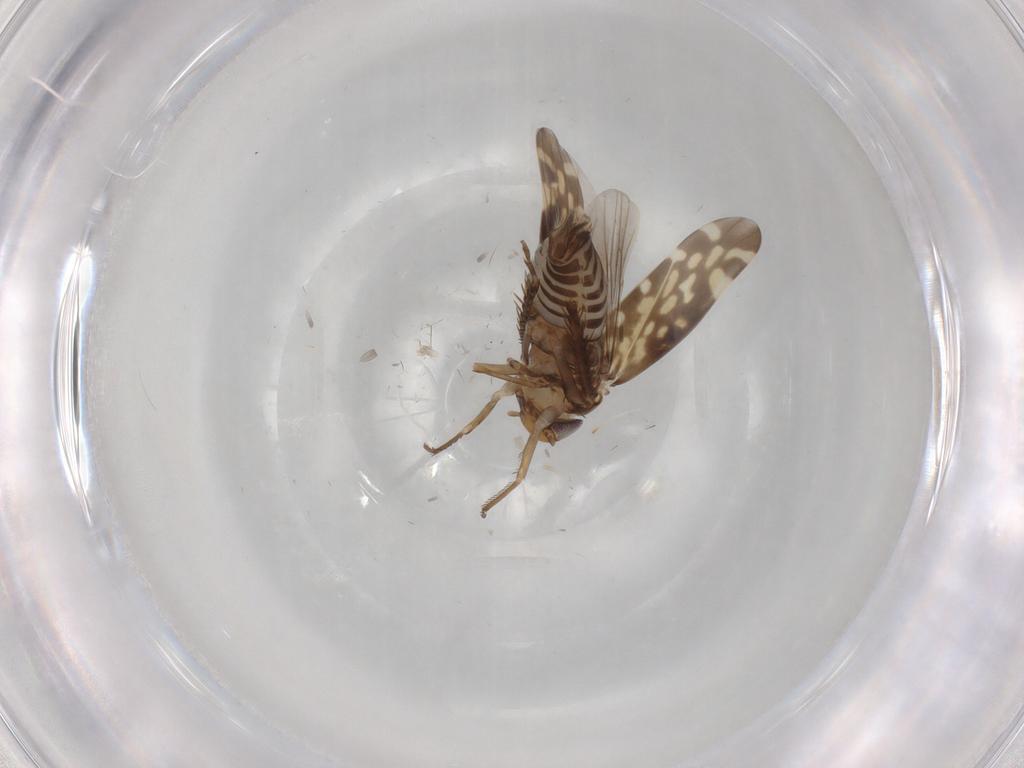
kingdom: Animalia
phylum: Arthropoda
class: Insecta
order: Hemiptera
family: Cicadellidae
